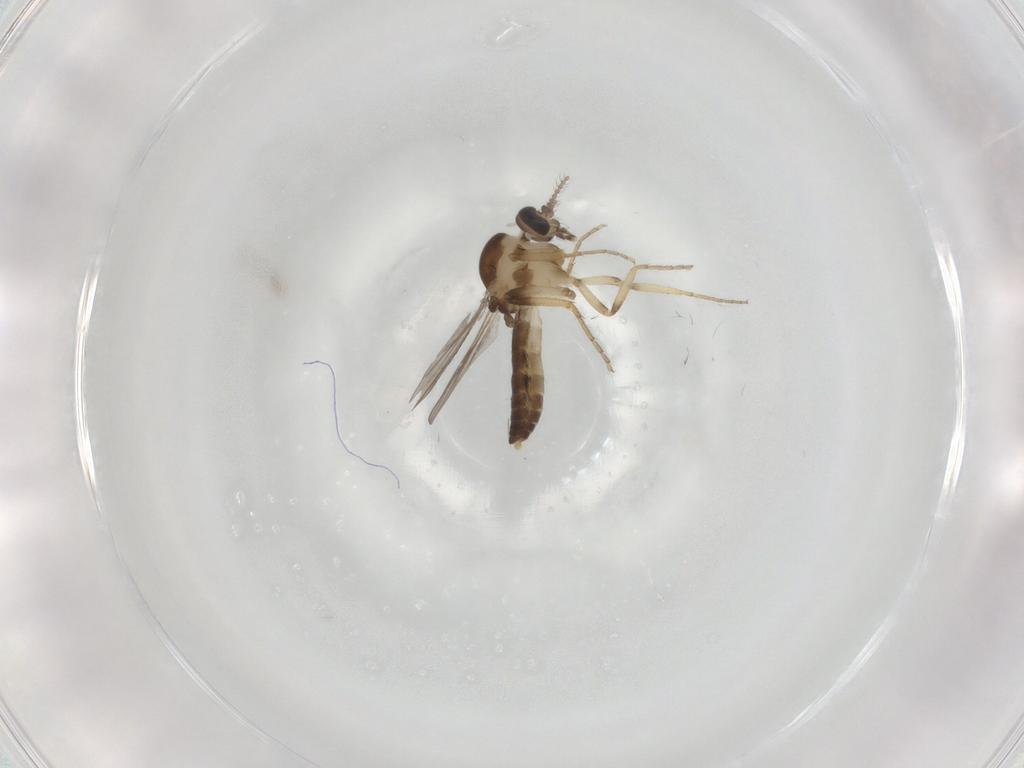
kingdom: Animalia
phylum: Arthropoda
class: Insecta
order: Diptera
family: Ceratopogonidae
